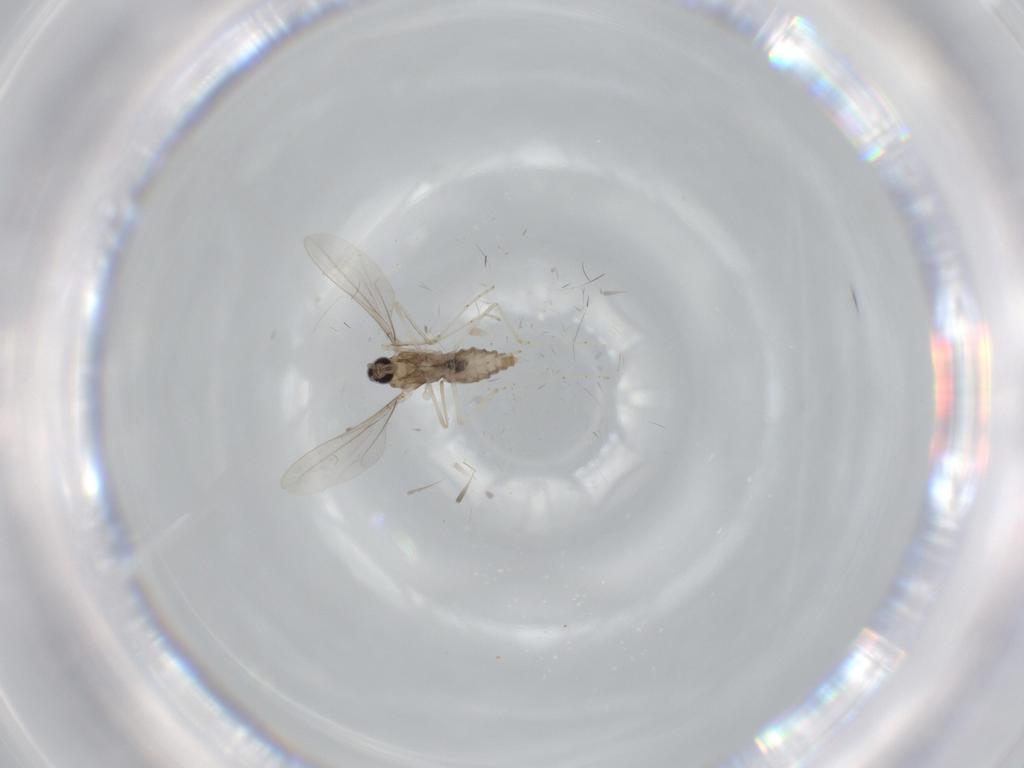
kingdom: Animalia
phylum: Arthropoda
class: Insecta
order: Diptera
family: Cecidomyiidae
